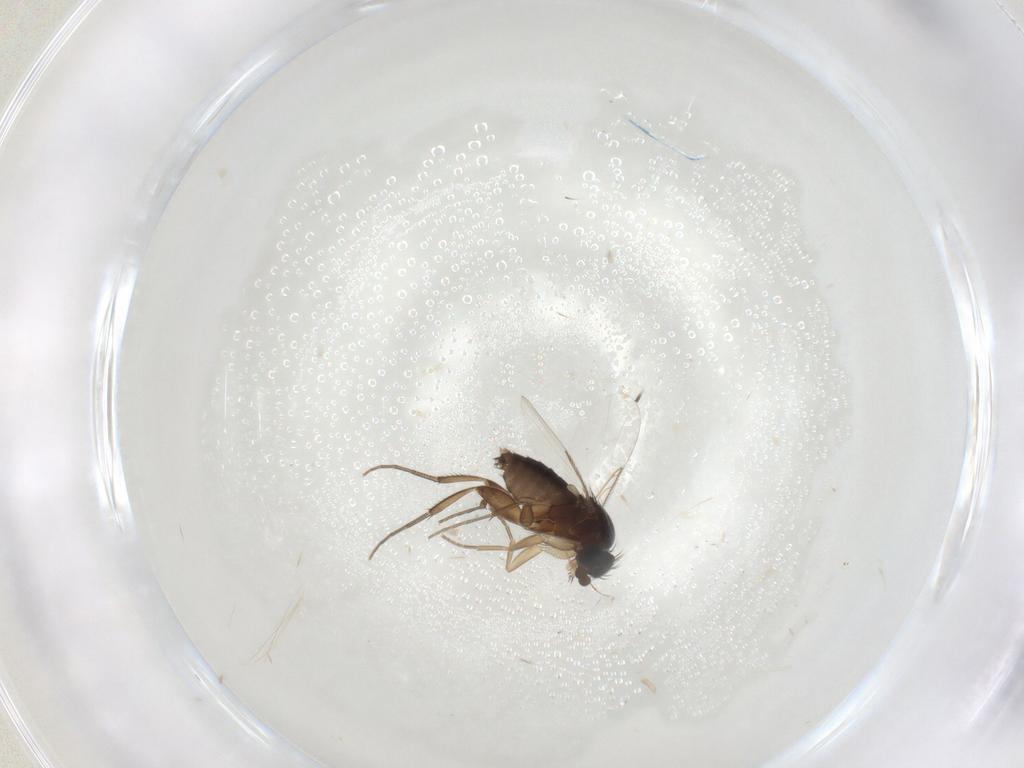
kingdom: Animalia
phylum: Arthropoda
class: Insecta
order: Diptera
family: Phoridae
